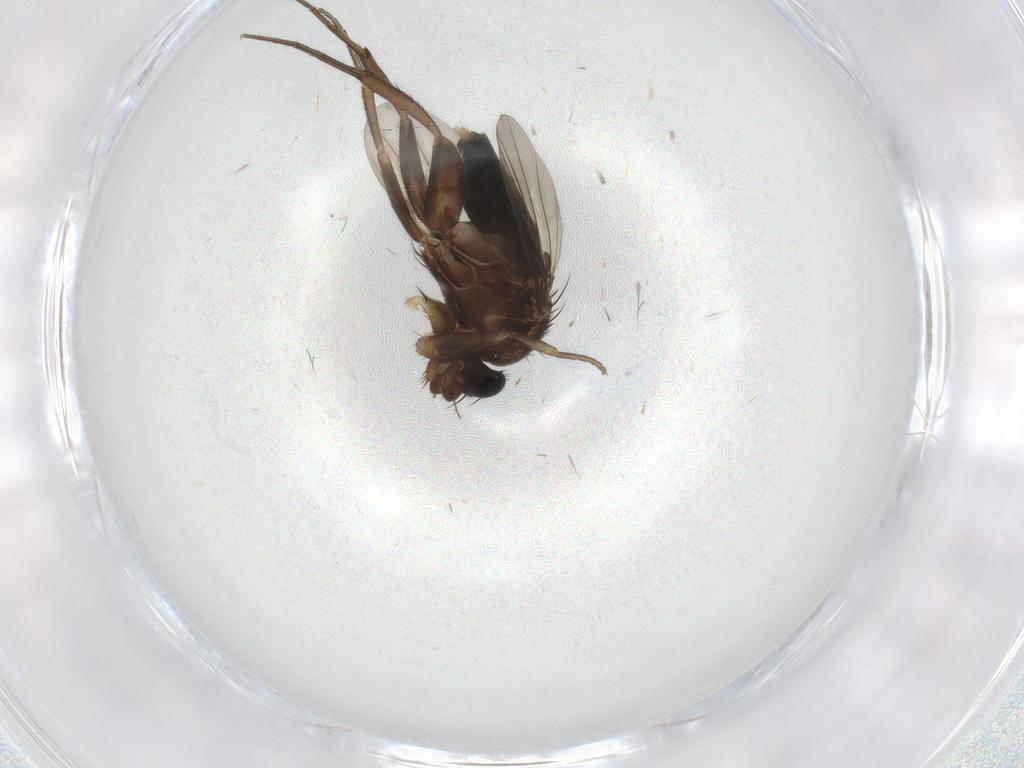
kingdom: Animalia
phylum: Arthropoda
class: Insecta
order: Diptera
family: Phoridae
